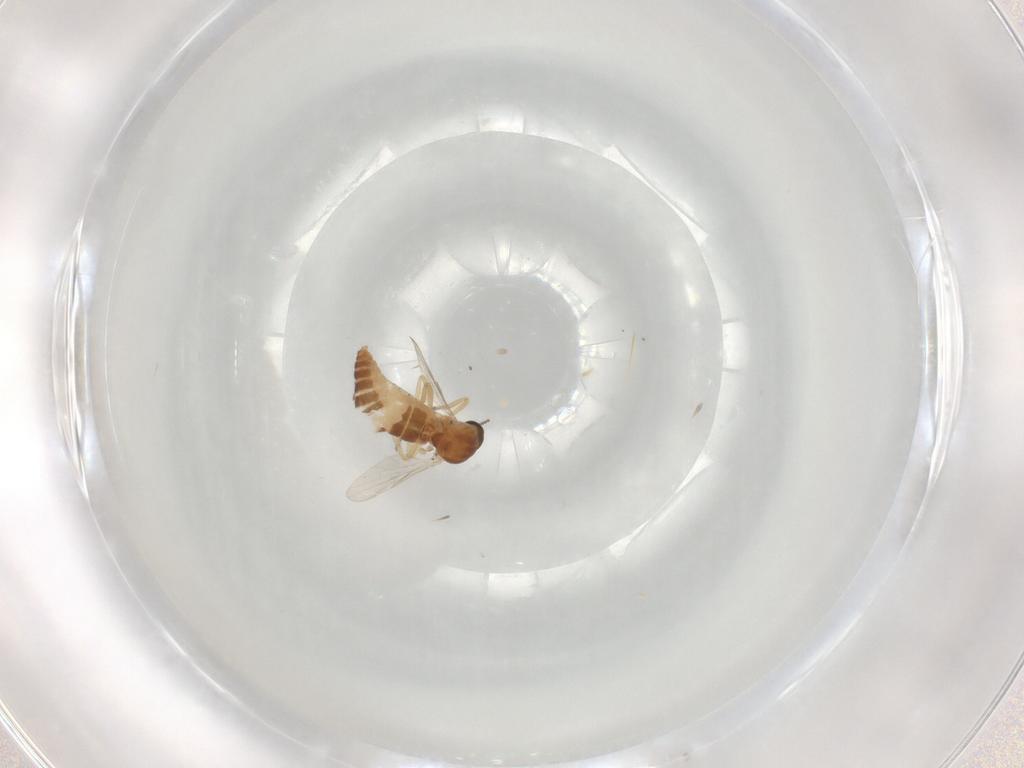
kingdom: Animalia
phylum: Arthropoda
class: Insecta
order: Diptera
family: Ceratopogonidae
